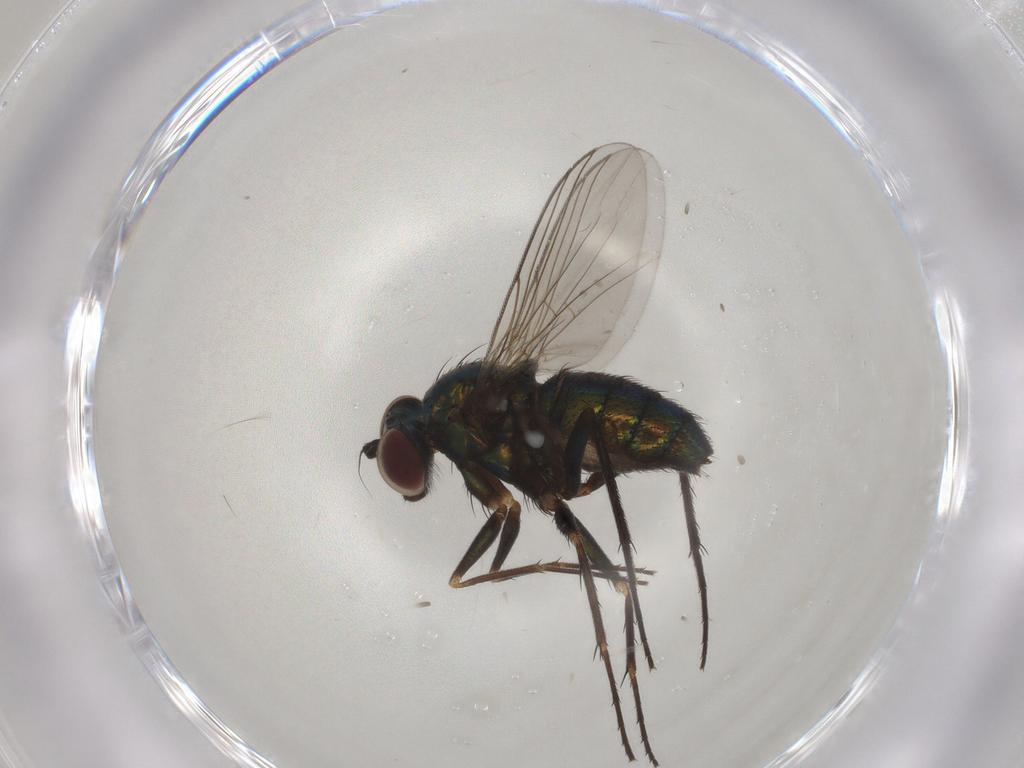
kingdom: Animalia
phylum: Arthropoda
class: Insecta
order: Diptera
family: Dolichopodidae
